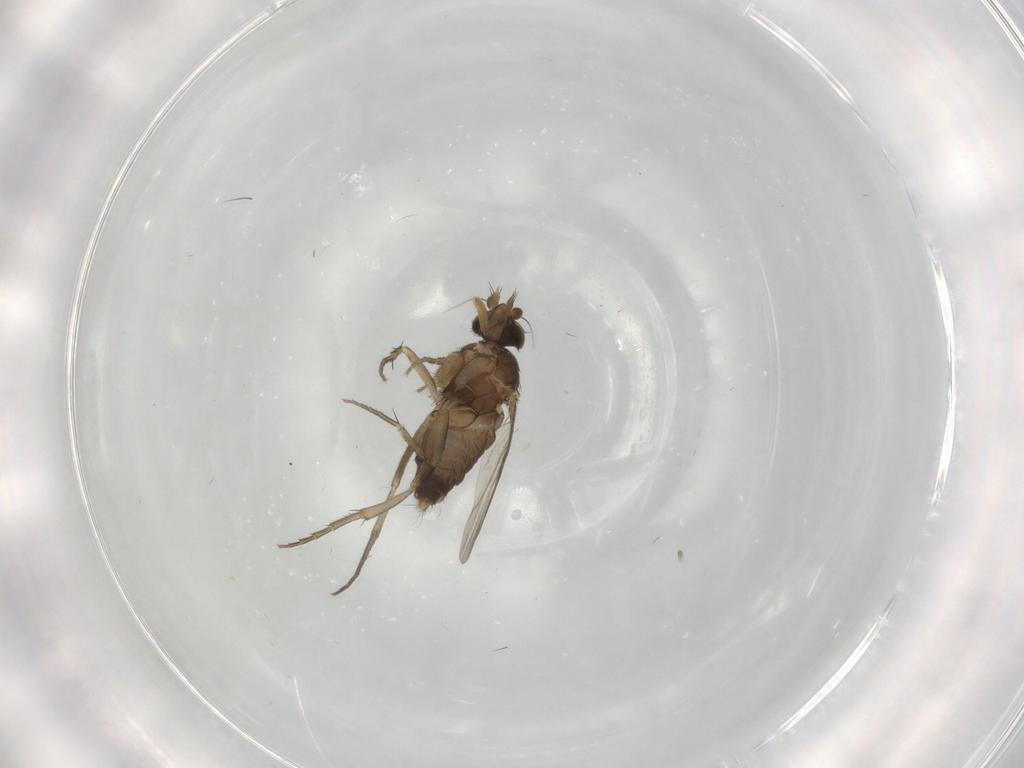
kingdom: Animalia
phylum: Arthropoda
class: Insecta
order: Diptera
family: Phoridae
